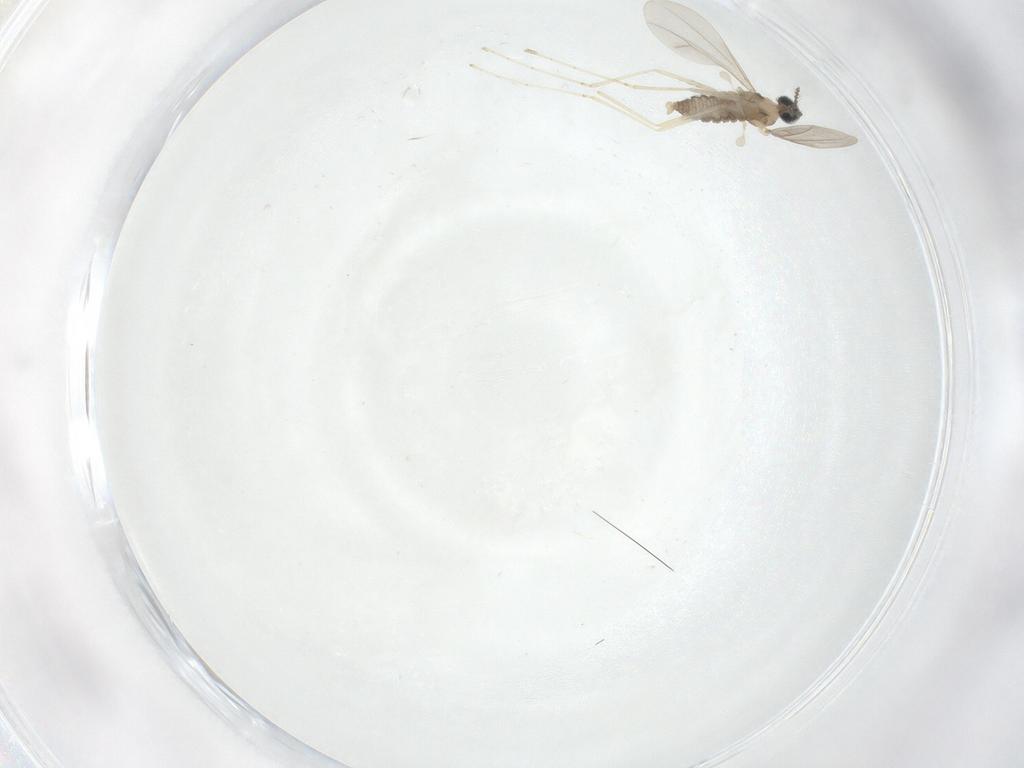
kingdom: Animalia
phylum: Arthropoda
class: Insecta
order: Diptera
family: Cecidomyiidae
